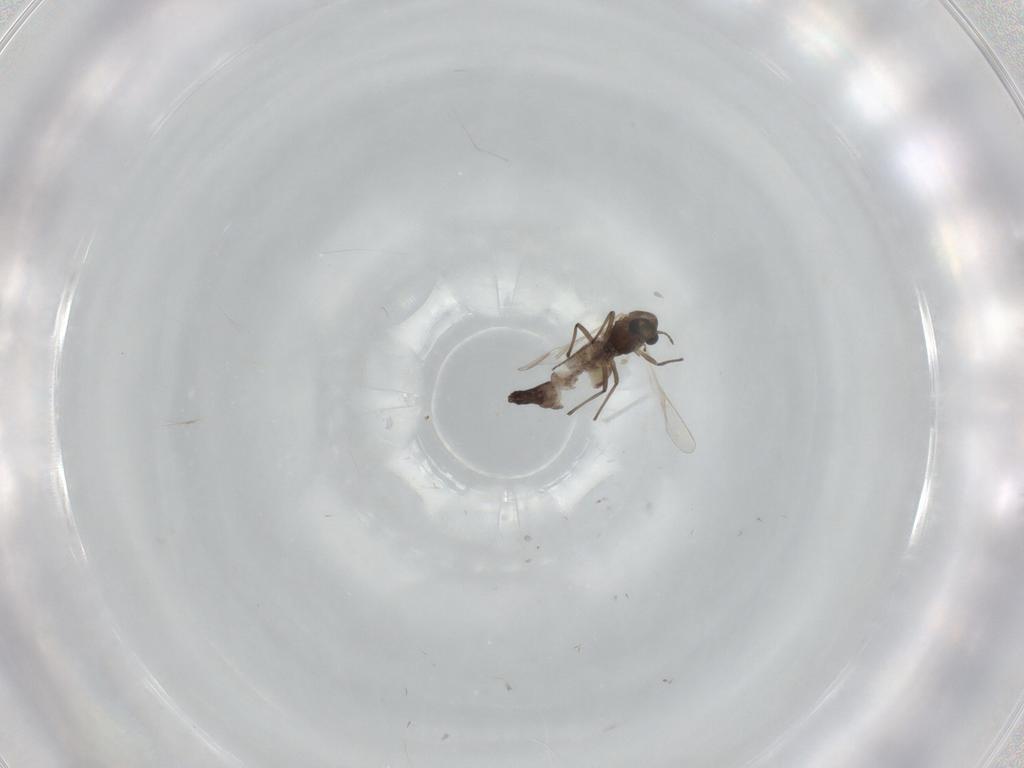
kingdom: Animalia
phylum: Arthropoda
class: Insecta
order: Diptera
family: Chironomidae
